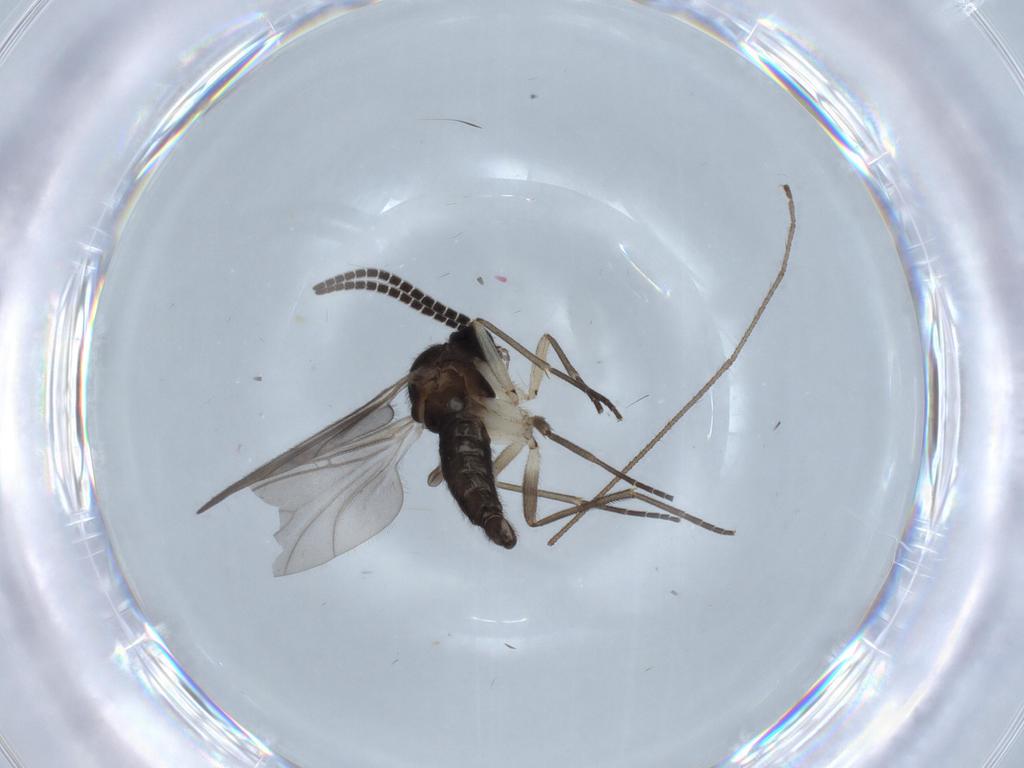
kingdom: Animalia
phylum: Arthropoda
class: Insecta
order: Diptera
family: Sciaridae
